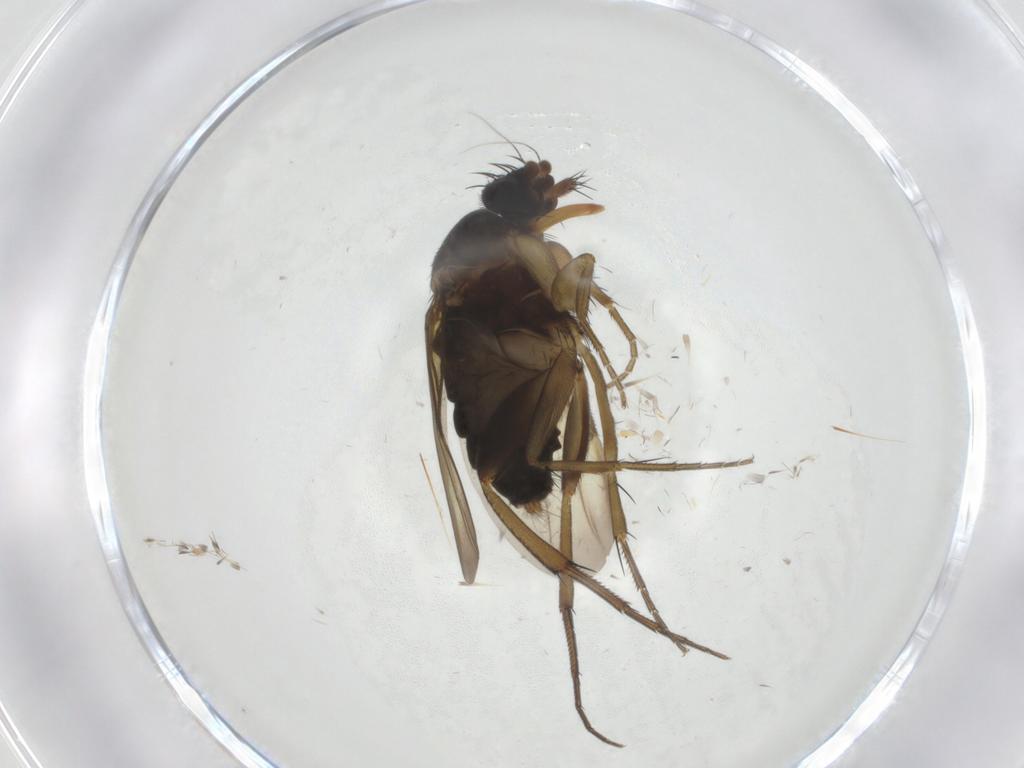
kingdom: Animalia
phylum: Arthropoda
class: Insecta
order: Diptera
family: Psychodidae
